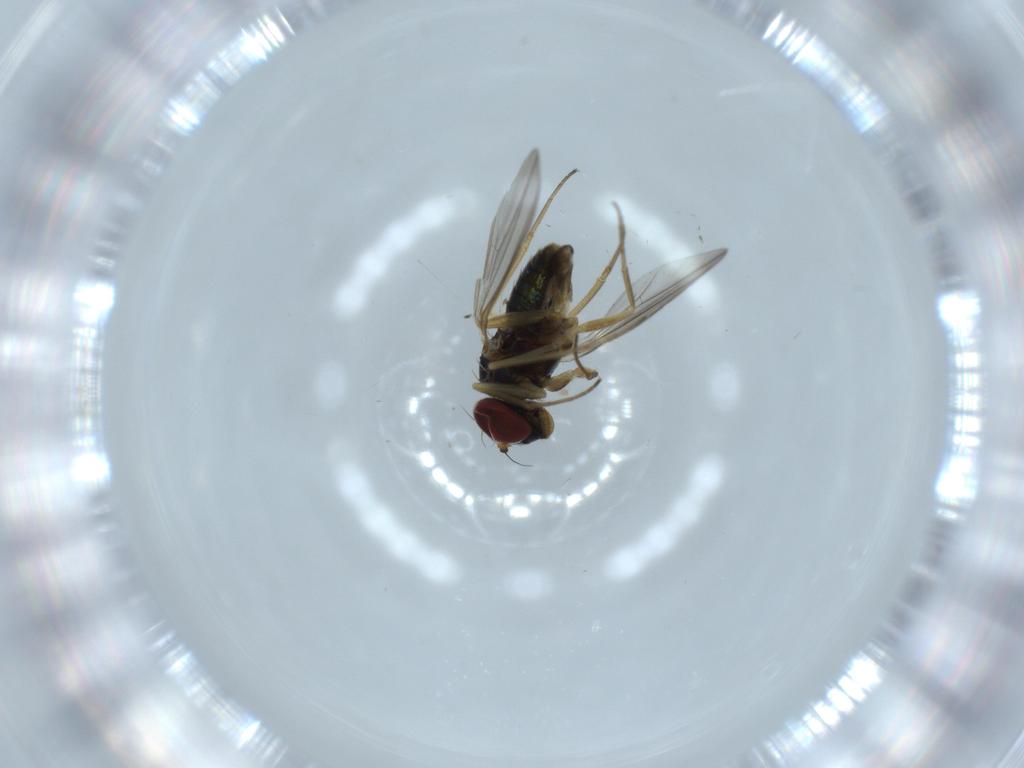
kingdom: Animalia
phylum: Arthropoda
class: Insecta
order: Diptera
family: Dolichopodidae
